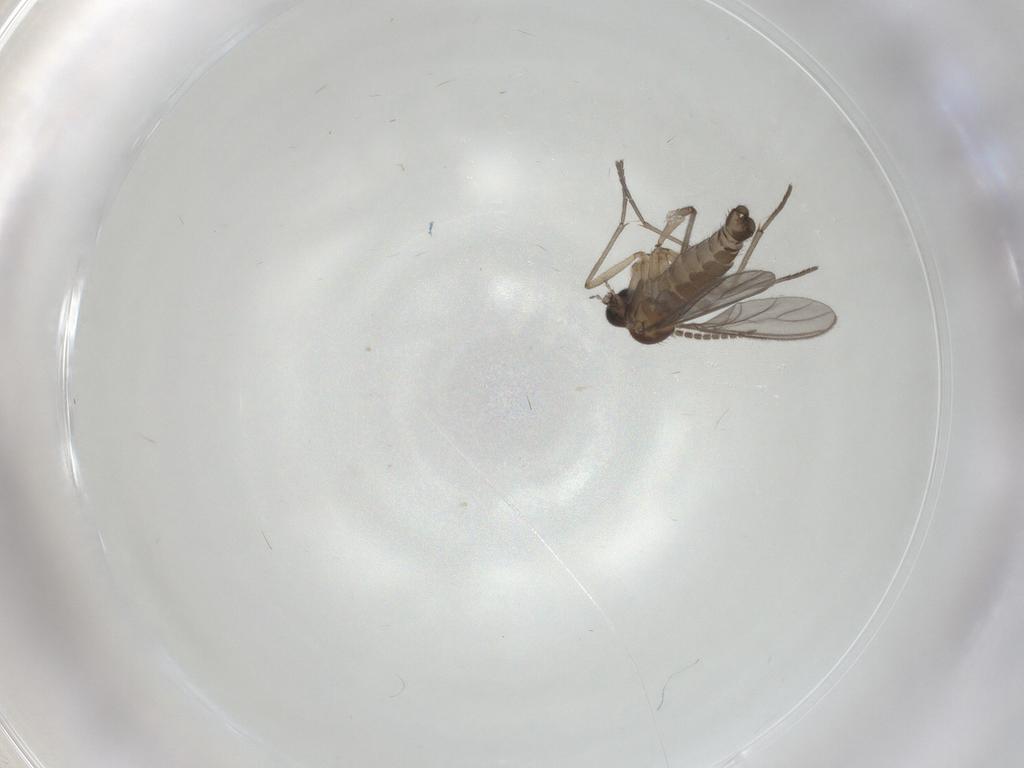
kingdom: Animalia
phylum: Arthropoda
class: Insecta
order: Diptera
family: Sciaridae
